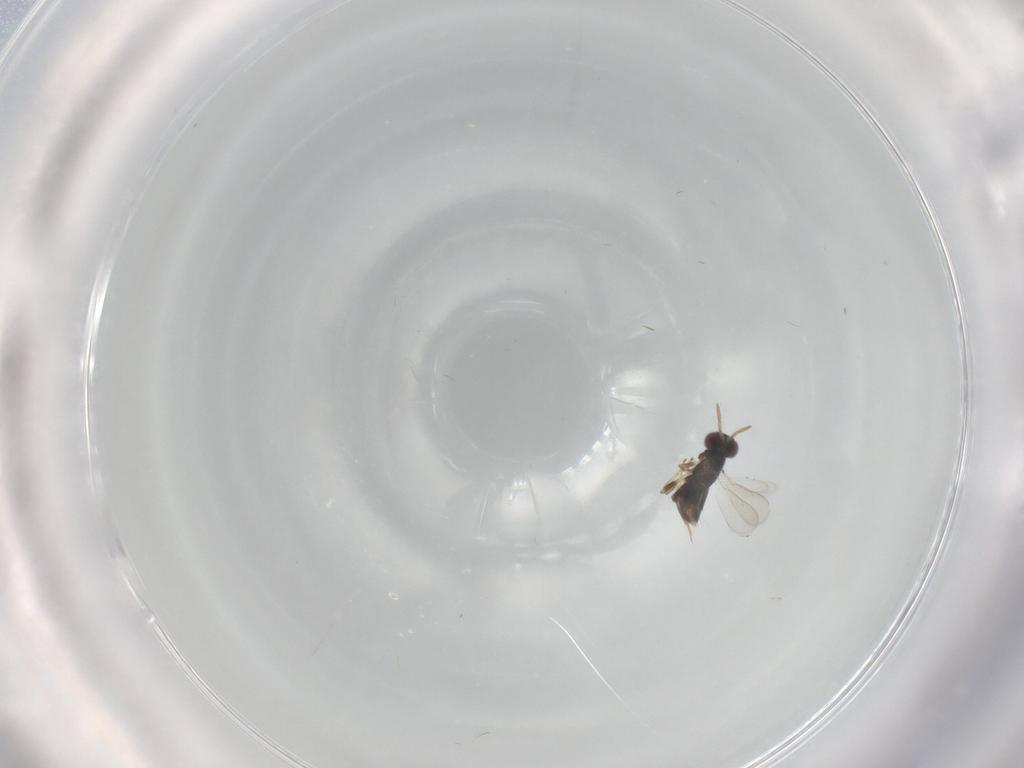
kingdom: Animalia
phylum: Arthropoda
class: Insecta
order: Hymenoptera
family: Aphelinidae
